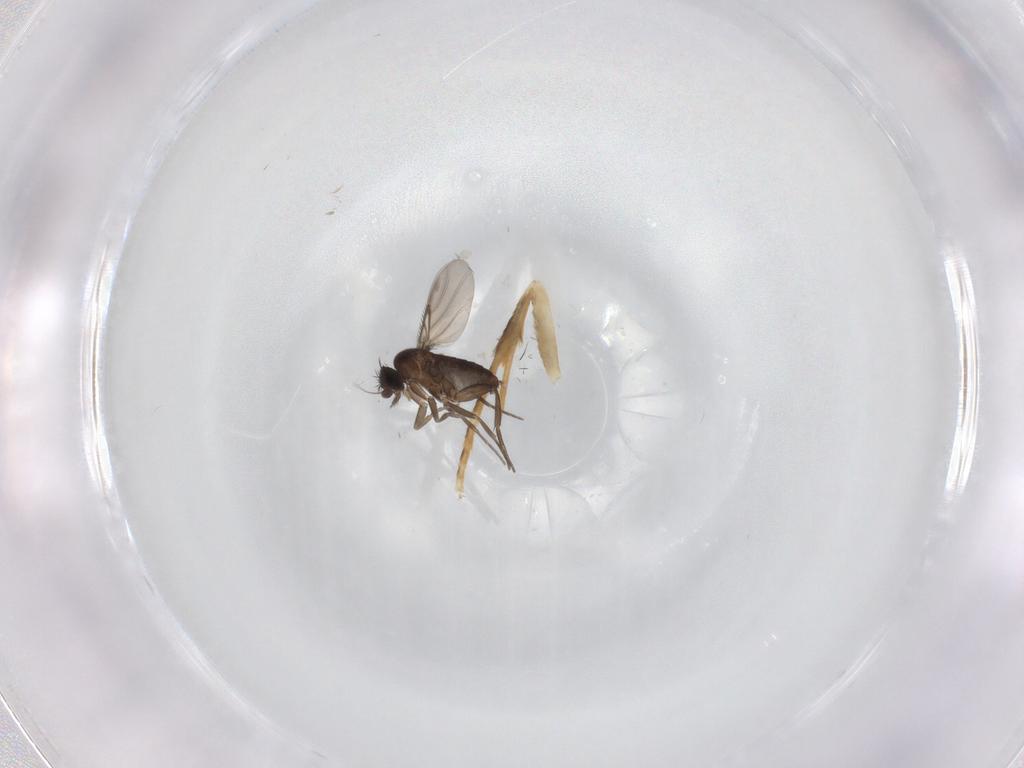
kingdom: Animalia
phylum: Arthropoda
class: Insecta
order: Diptera
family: Phoridae
